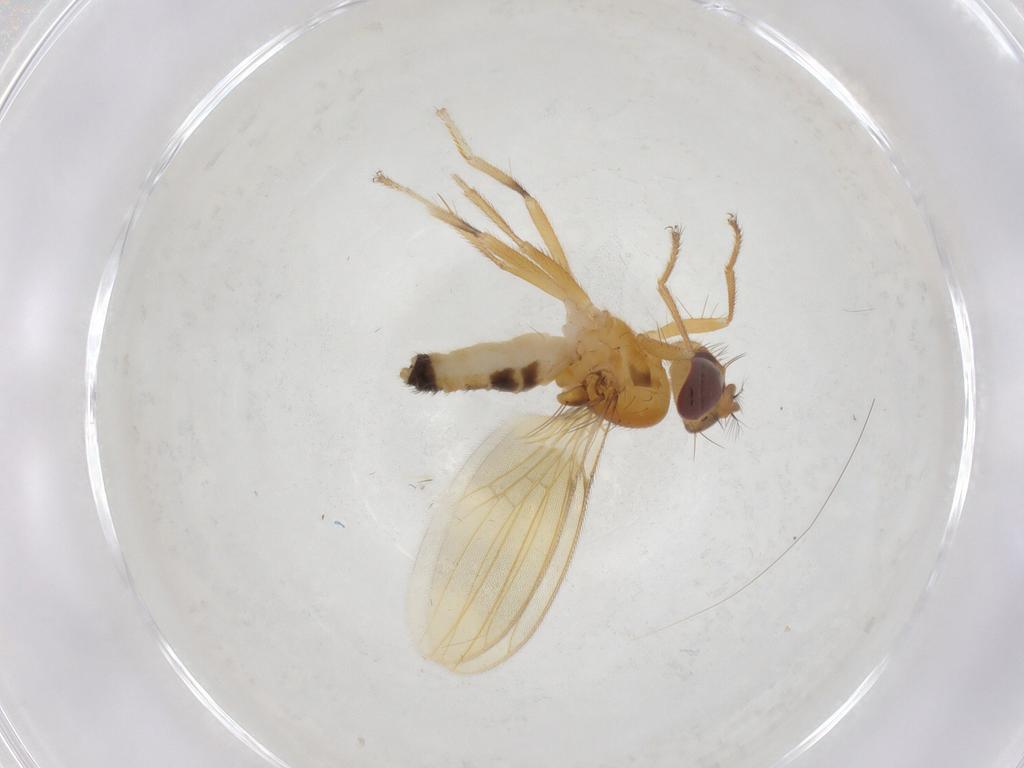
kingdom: Animalia
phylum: Arthropoda
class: Insecta
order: Diptera
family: Periscelididae
